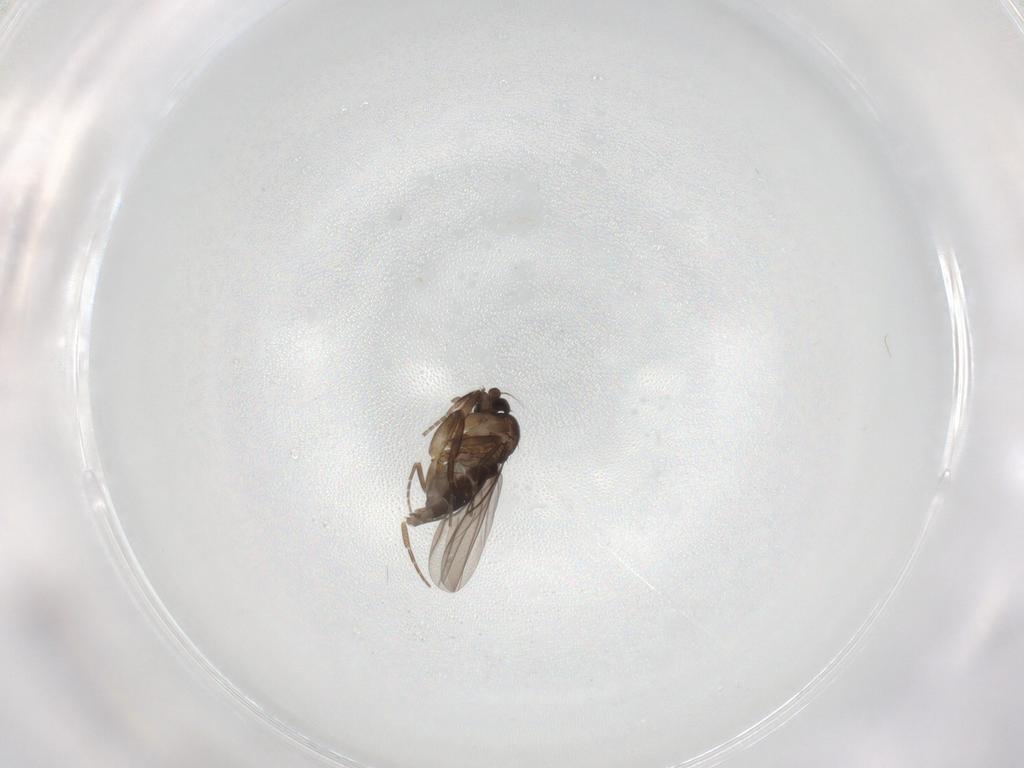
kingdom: Animalia
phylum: Arthropoda
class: Insecta
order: Diptera
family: Phoridae
